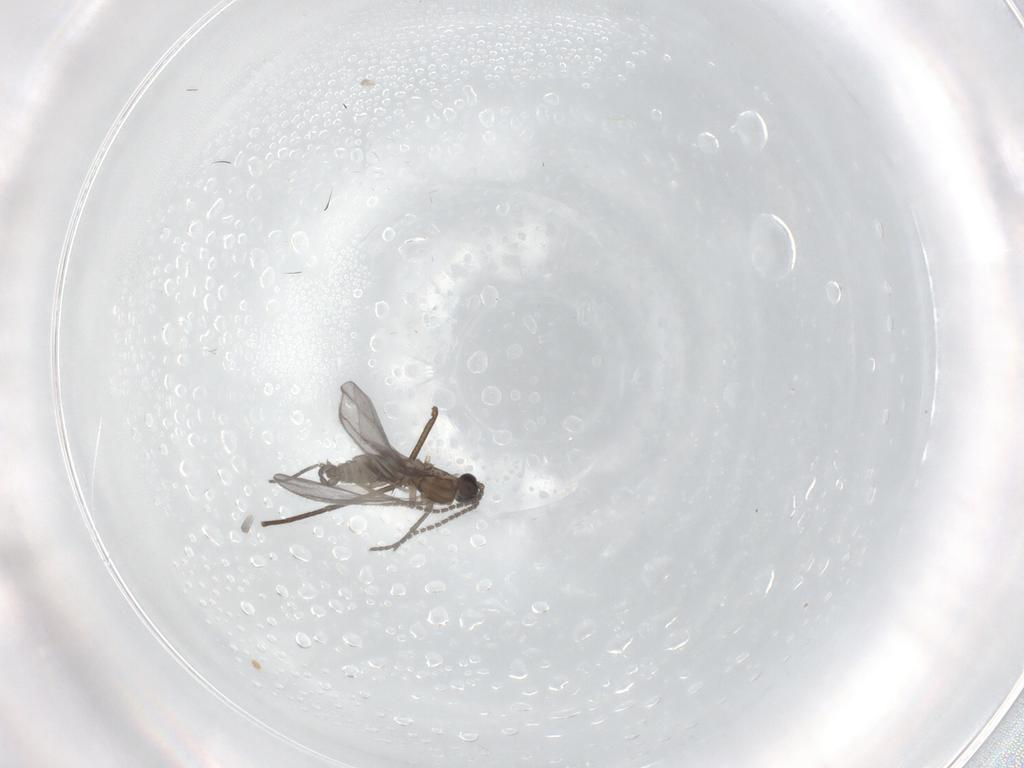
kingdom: Animalia
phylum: Arthropoda
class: Insecta
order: Diptera
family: Sciaridae
